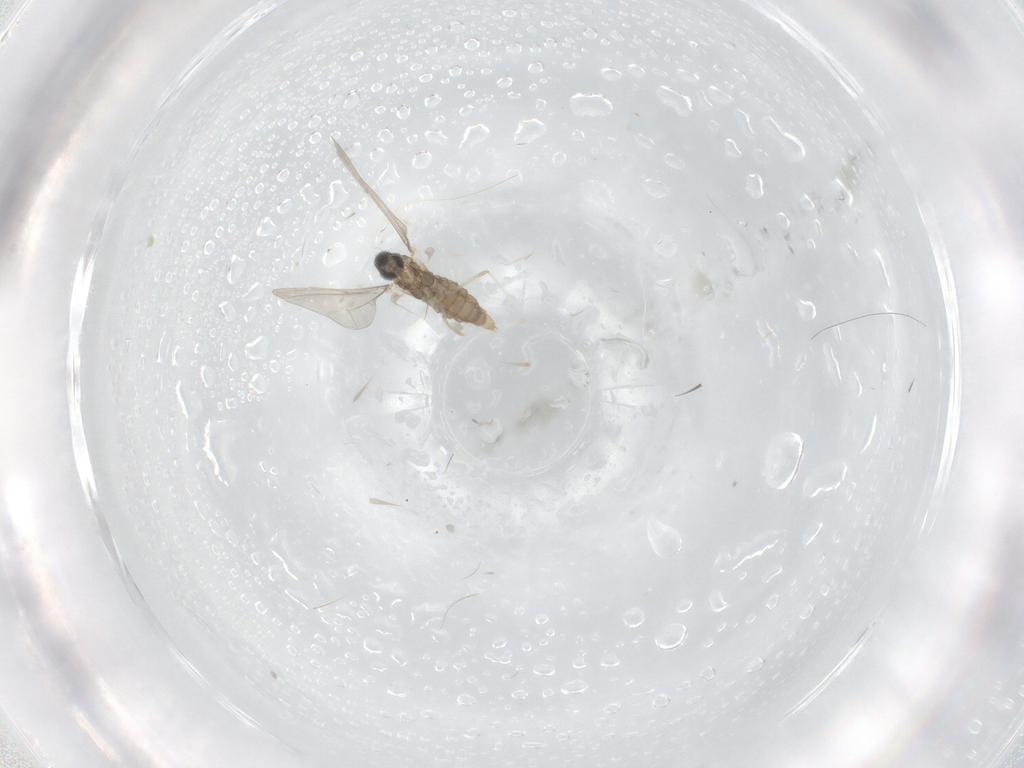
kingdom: Animalia
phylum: Arthropoda
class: Insecta
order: Diptera
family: Cecidomyiidae
